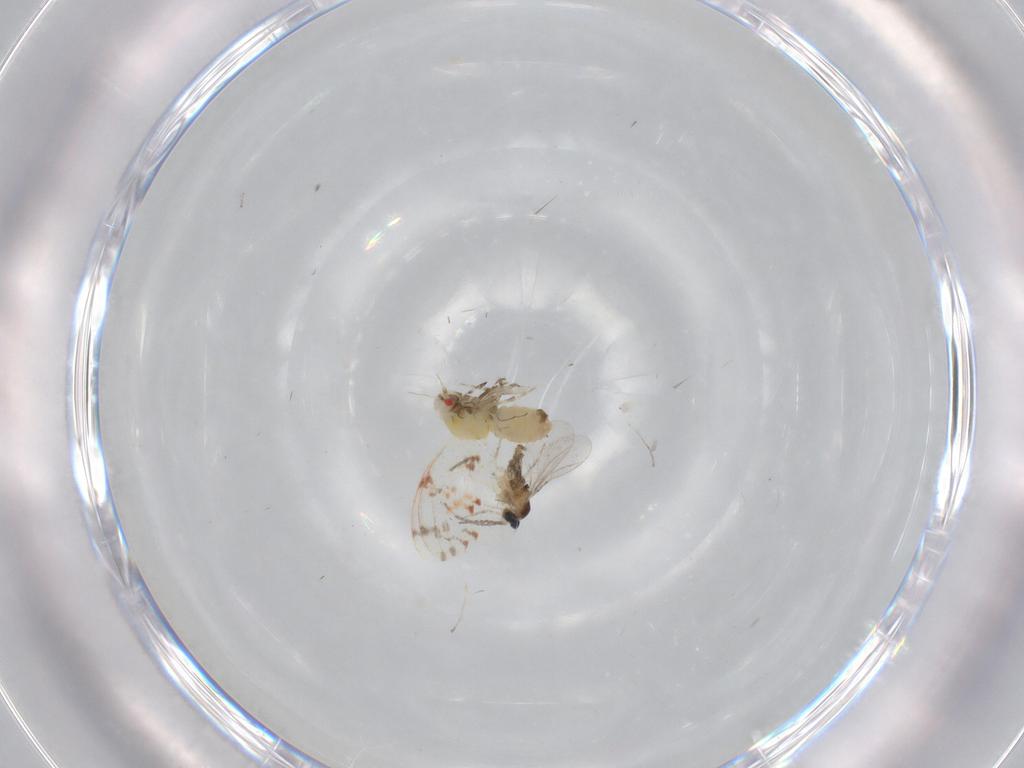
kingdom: Animalia
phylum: Arthropoda
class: Insecta
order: Diptera
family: Cecidomyiidae
